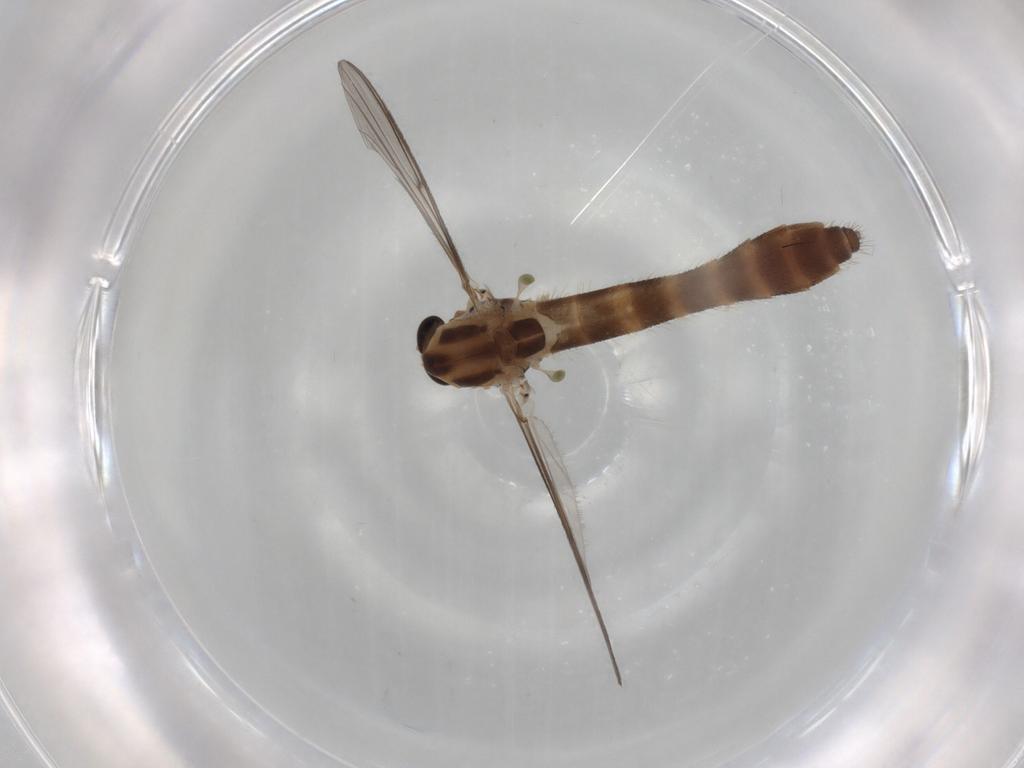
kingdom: Animalia
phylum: Arthropoda
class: Insecta
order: Diptera
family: Chironomidae
